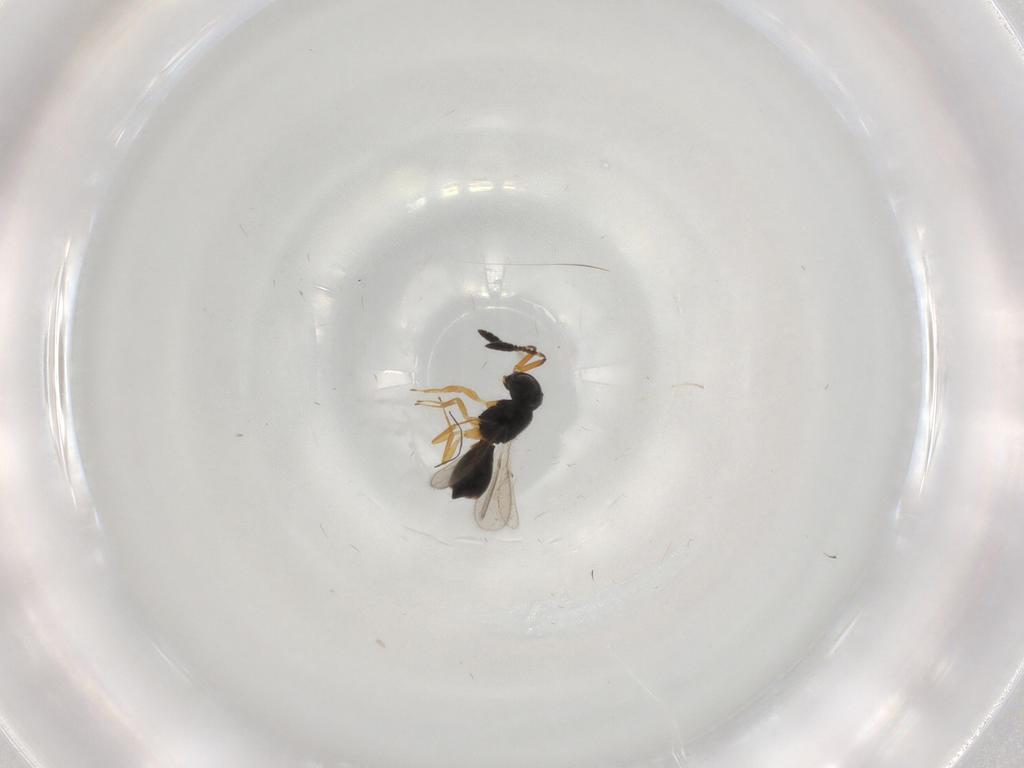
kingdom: Animalia
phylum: Arthropoda
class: Insecta
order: Hymenoptera
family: Scelionidae
